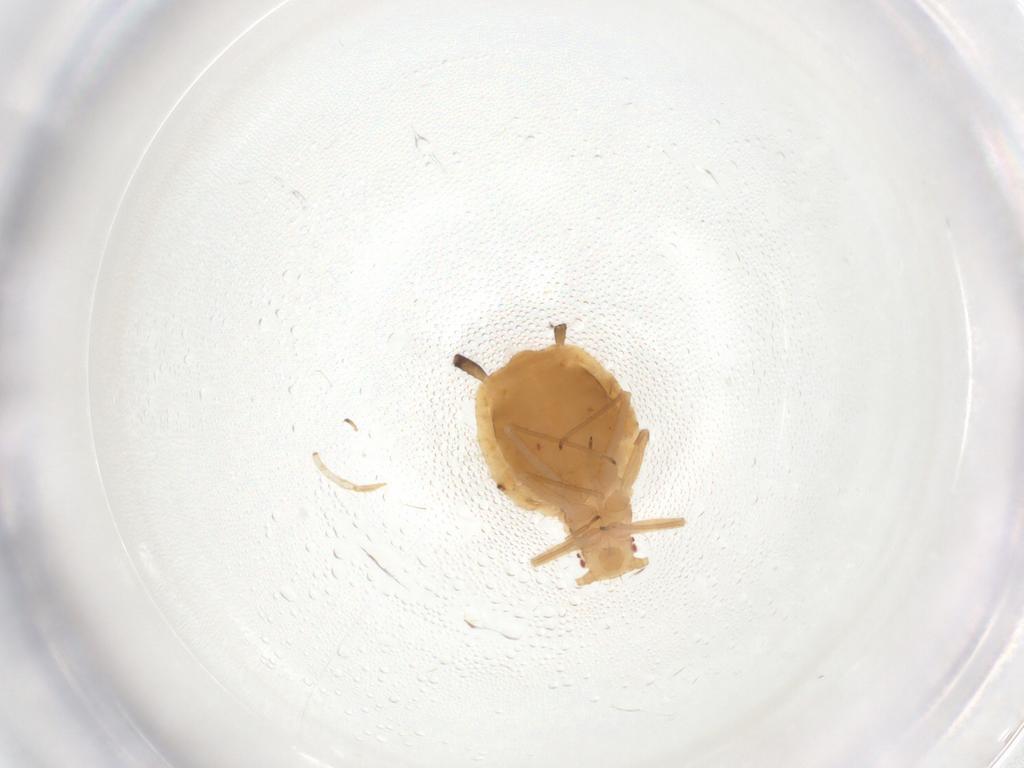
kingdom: Animalia
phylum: Arthropoda
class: Insecta
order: Hemiptera
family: Aphididae
